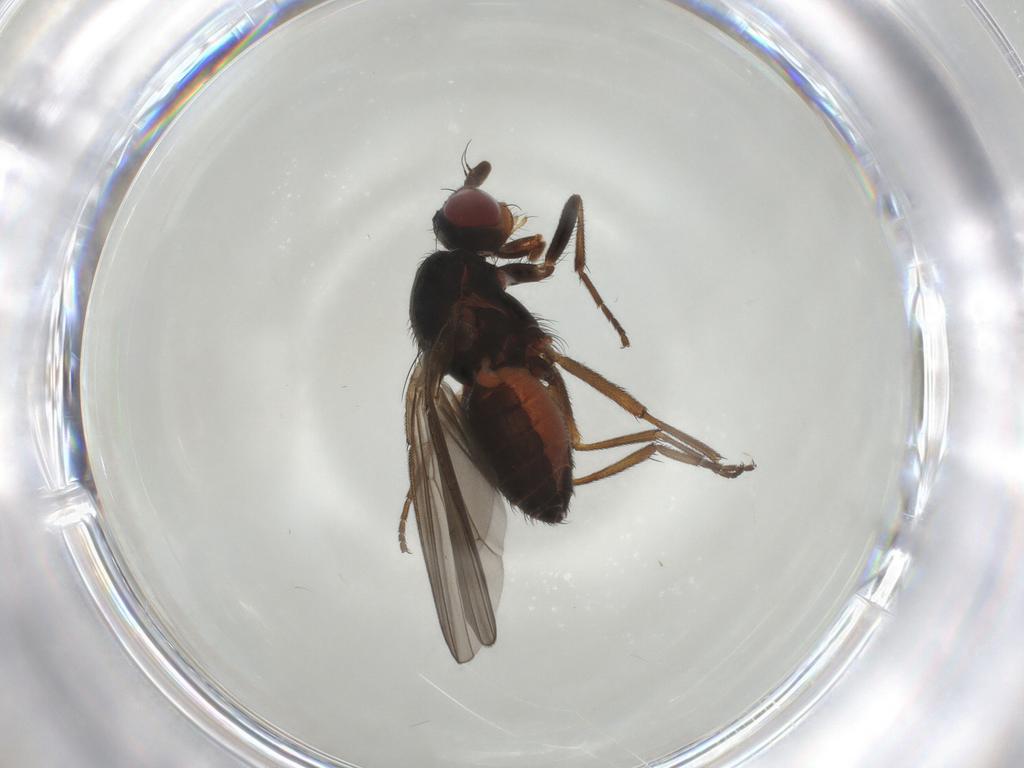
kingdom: Animalia
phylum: Arthropoda
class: Insecta
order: Diptera
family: Heleomyzidae
